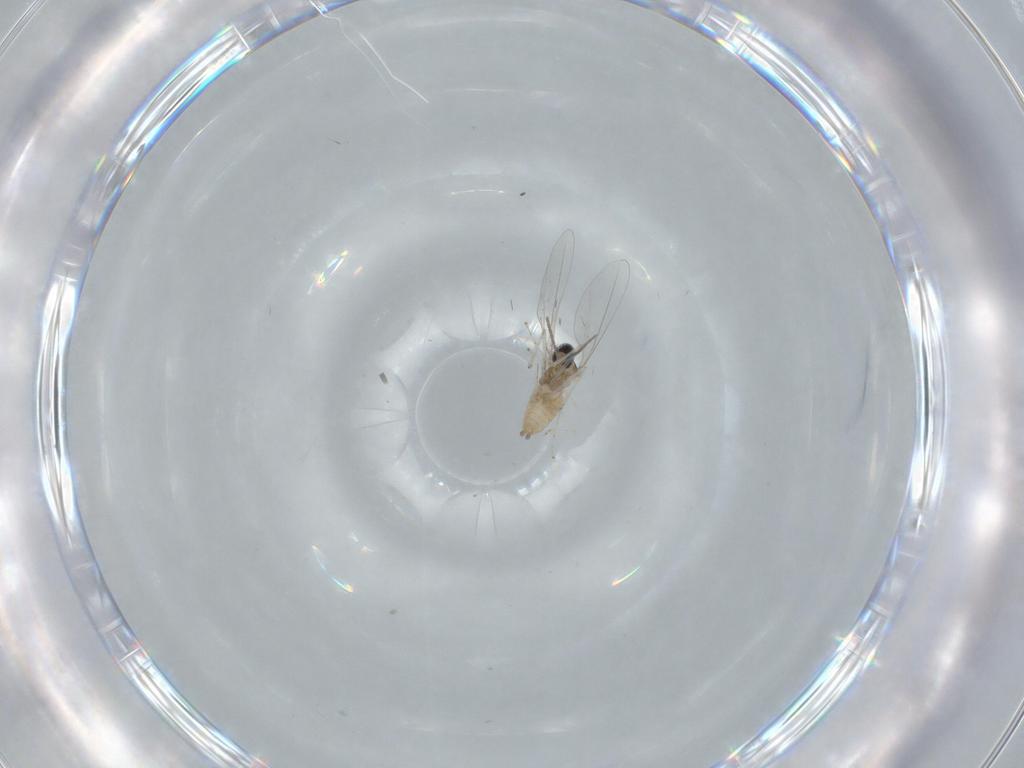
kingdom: Animalia
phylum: Arthropoda
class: Insecta
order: Diptera
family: Cecidomyiidae
